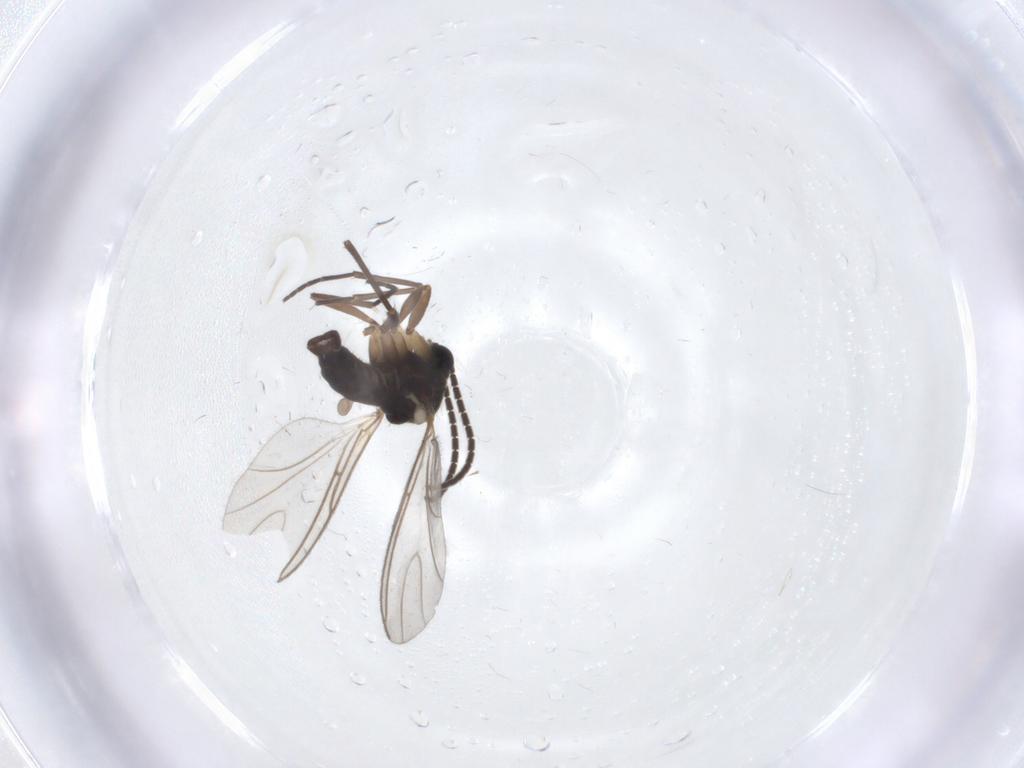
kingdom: Animalia
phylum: Arthropoda
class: Insecta
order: Diptera
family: Sciaridae
